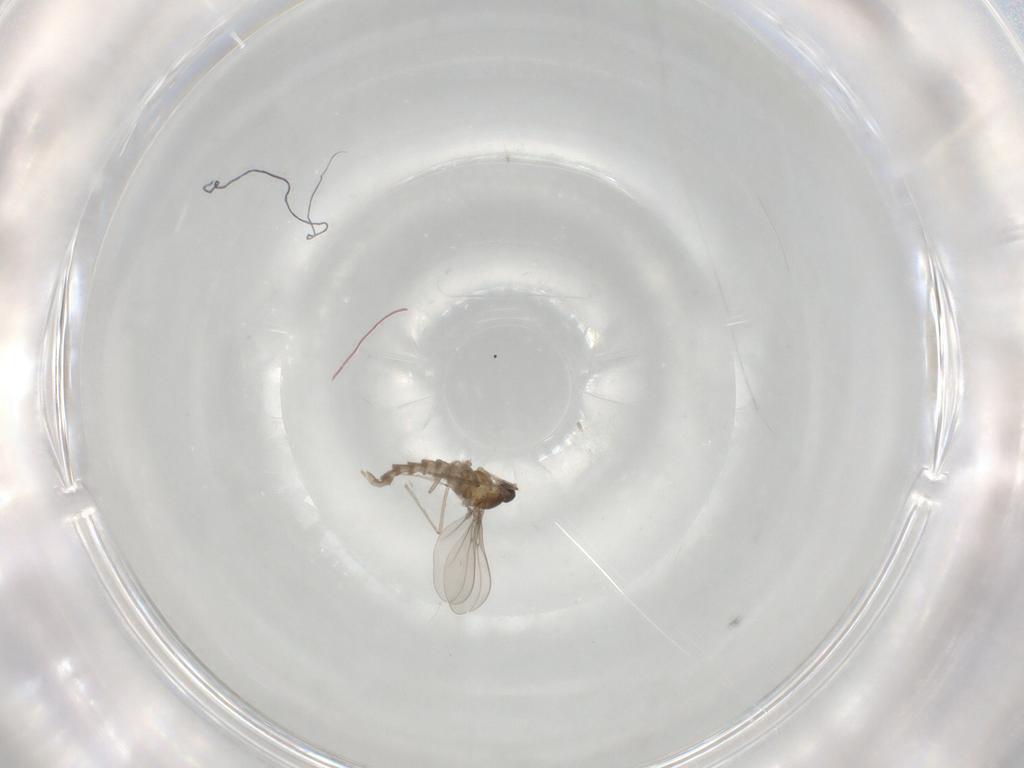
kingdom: Animalia
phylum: Arthropoda
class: Insecta
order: Diptera
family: Cecidomyiidae
